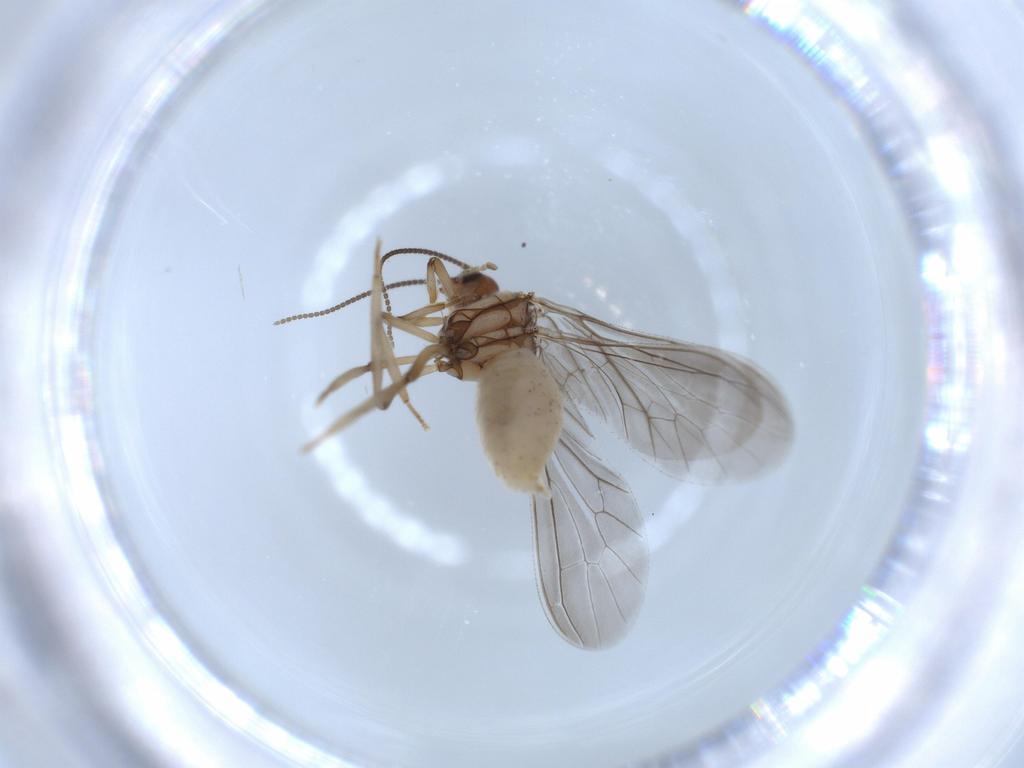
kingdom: Animalia
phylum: Arthropoda
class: Insecta
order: Neuroptera
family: Coniopterygidae
